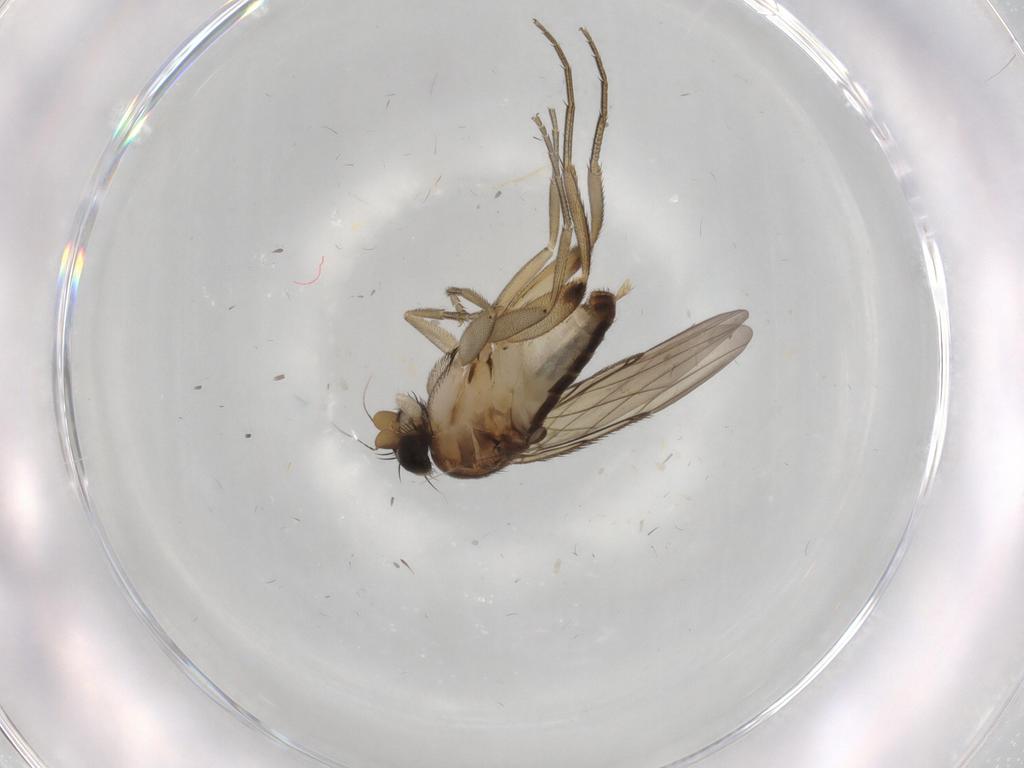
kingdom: Animalia
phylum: Arthropoda
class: Insecta
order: Diptera
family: Phoridae
